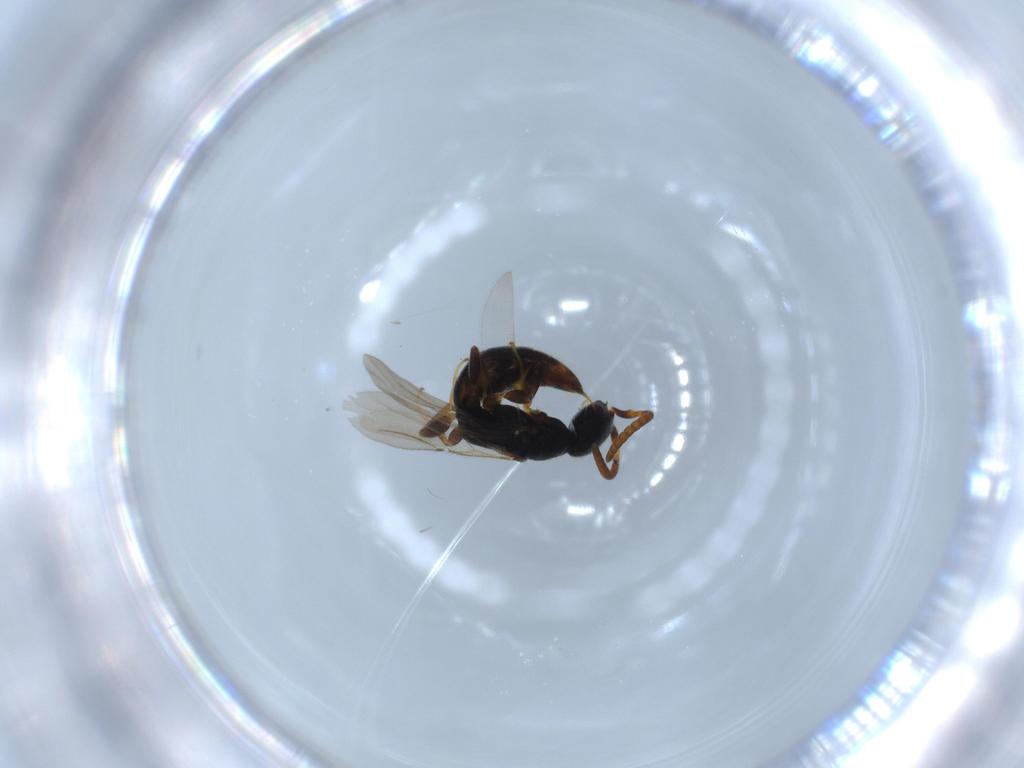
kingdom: Animalia
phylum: Arthropoda
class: Insecta
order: Hymenoptera
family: Bethylidae
